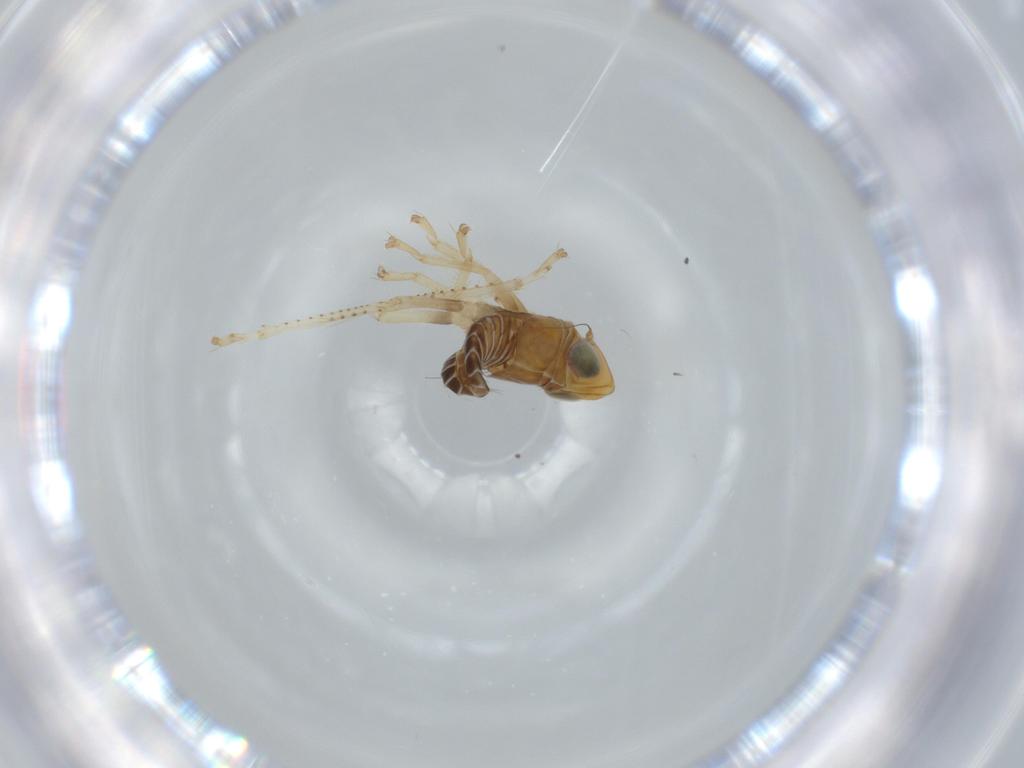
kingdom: Animalia
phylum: Arthropoda
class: Insecta
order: Hemiptera
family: Cicadellidae
